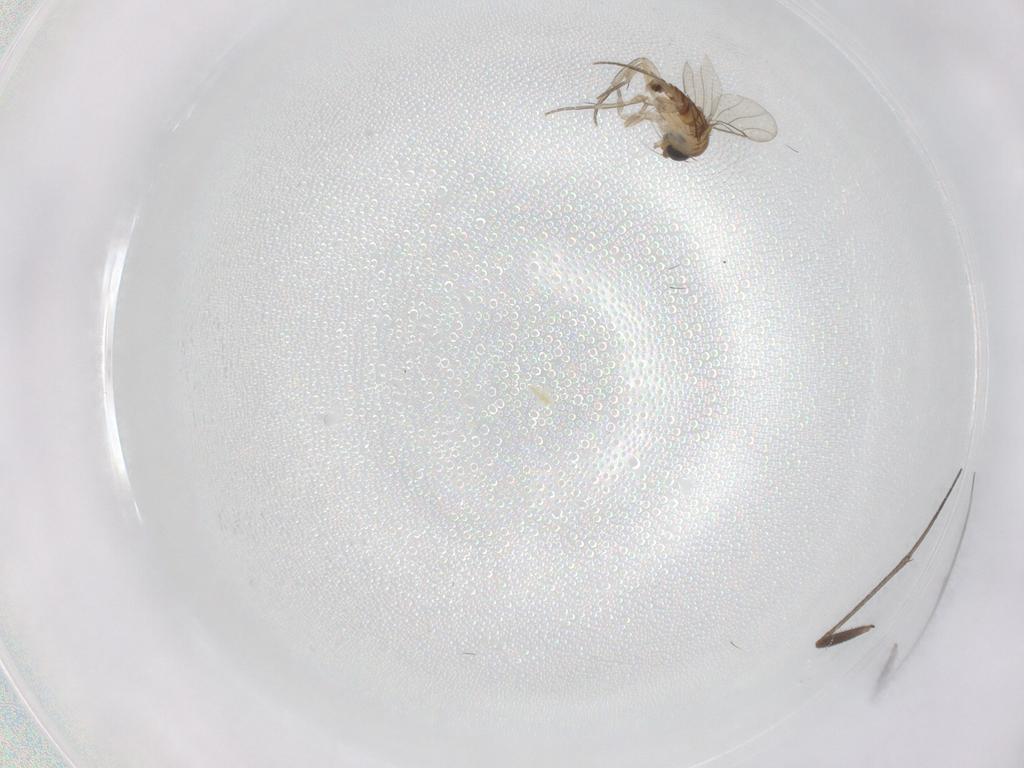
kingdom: Animalia
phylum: Arthropoda
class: Insecta
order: Diptera
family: Phoridae
